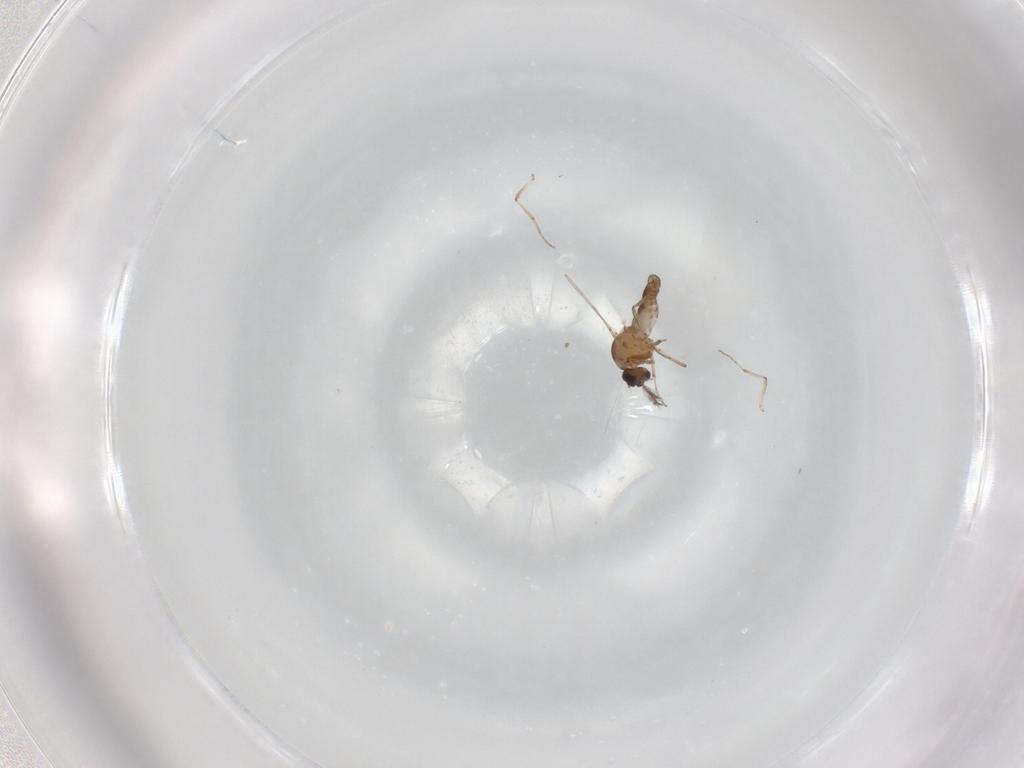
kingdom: Animalia
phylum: Arthropoda
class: Insecta
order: Diptera
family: Ceratopogonidae
